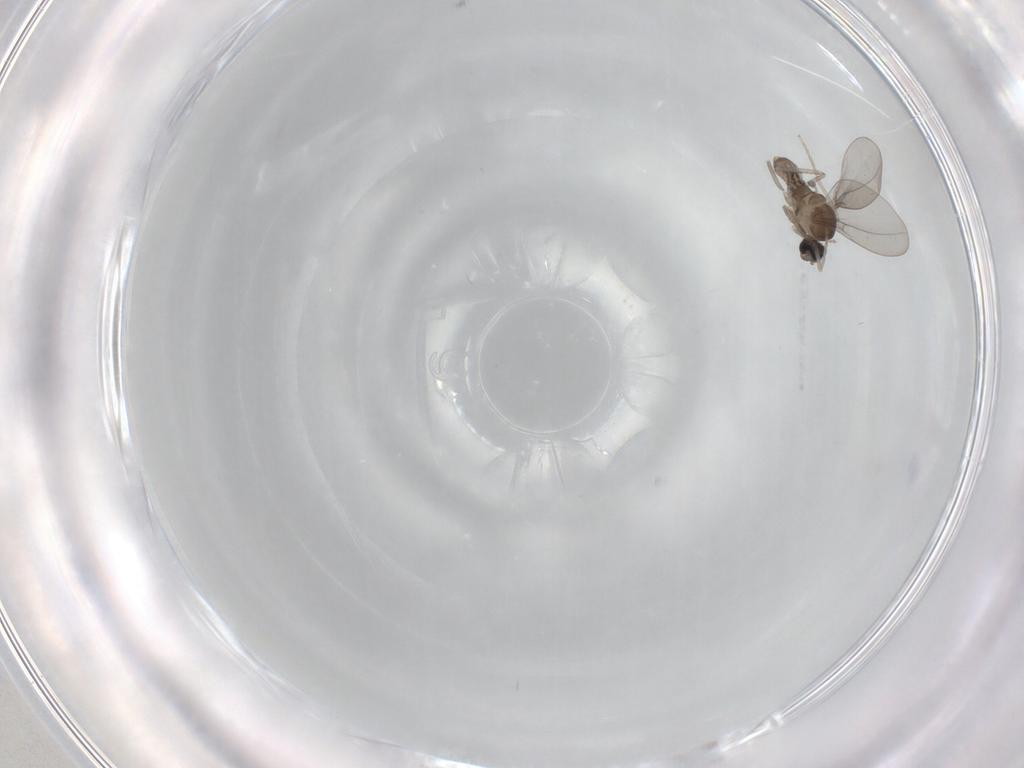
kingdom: Animalia
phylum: Arthropoda
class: Insecta
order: Diptera
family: Cecidomyiidae
